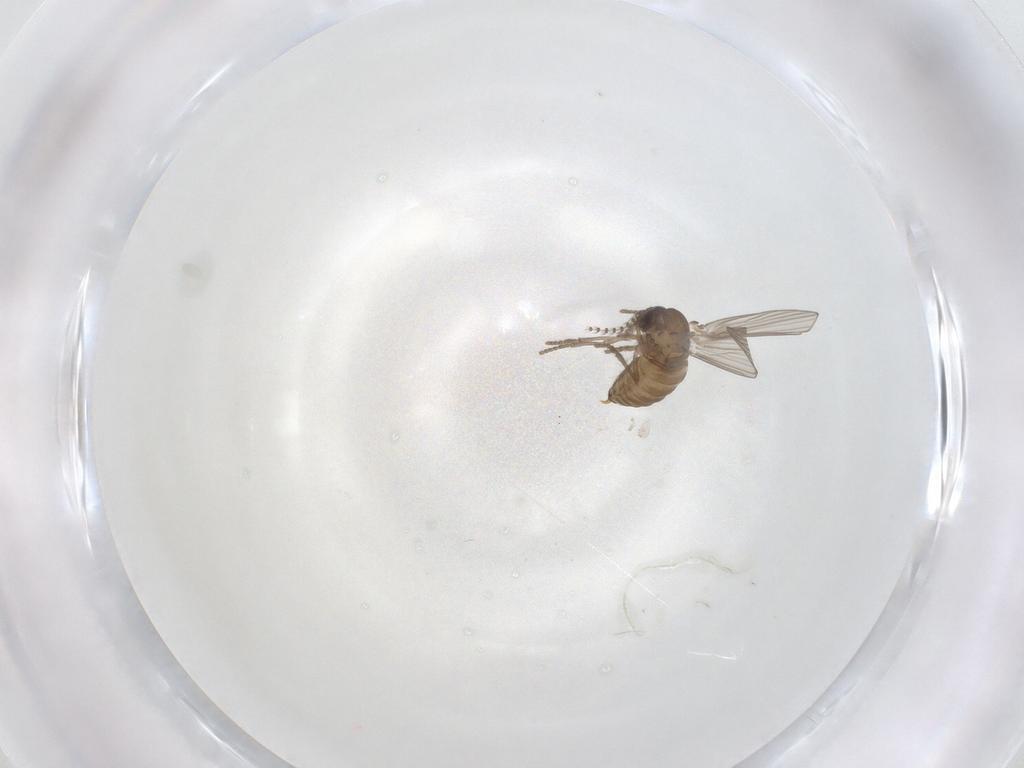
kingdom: Animalia
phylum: Arthropoda
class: Insecta
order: Diptera
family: Psychodidae
